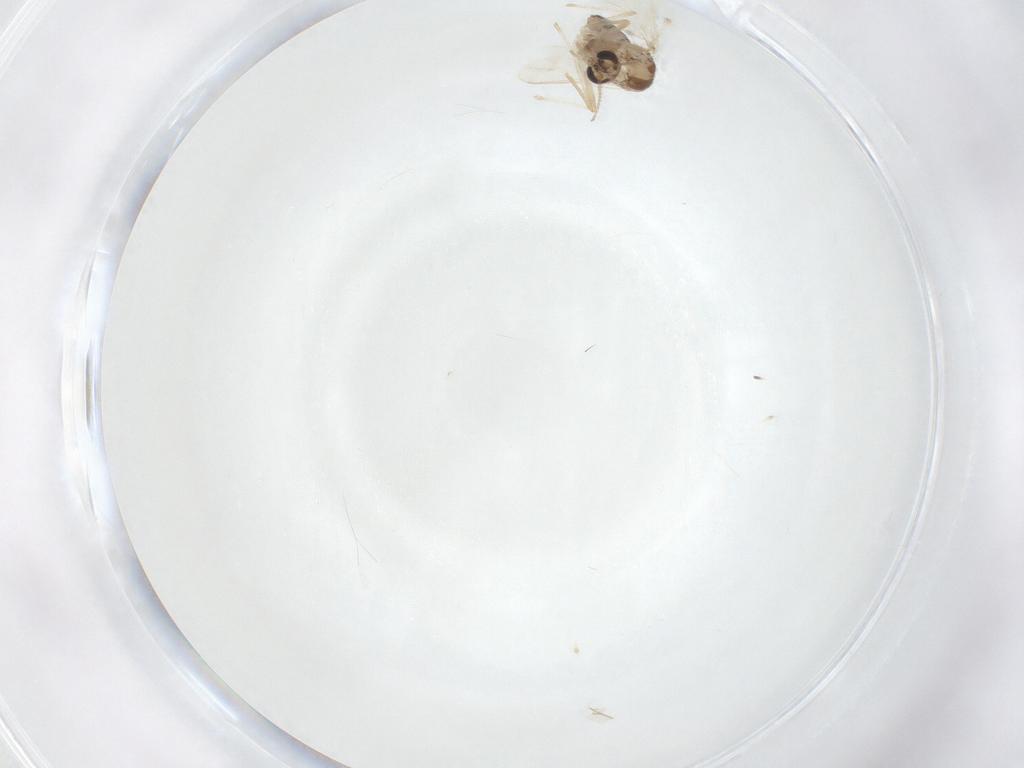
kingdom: Animalia
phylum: Arthropoda
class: Insecta
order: Diptera
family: Chironomidae
